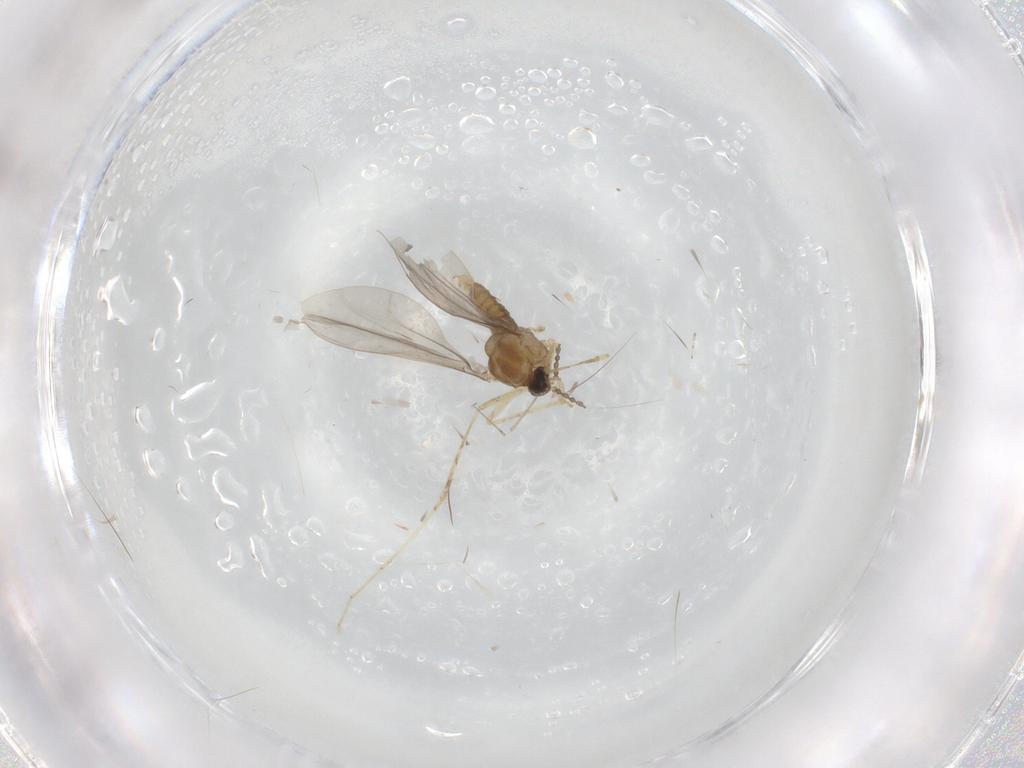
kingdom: Animalia
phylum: Arthropoda
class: Insecta
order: Diptera
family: Cecidomyiidae
